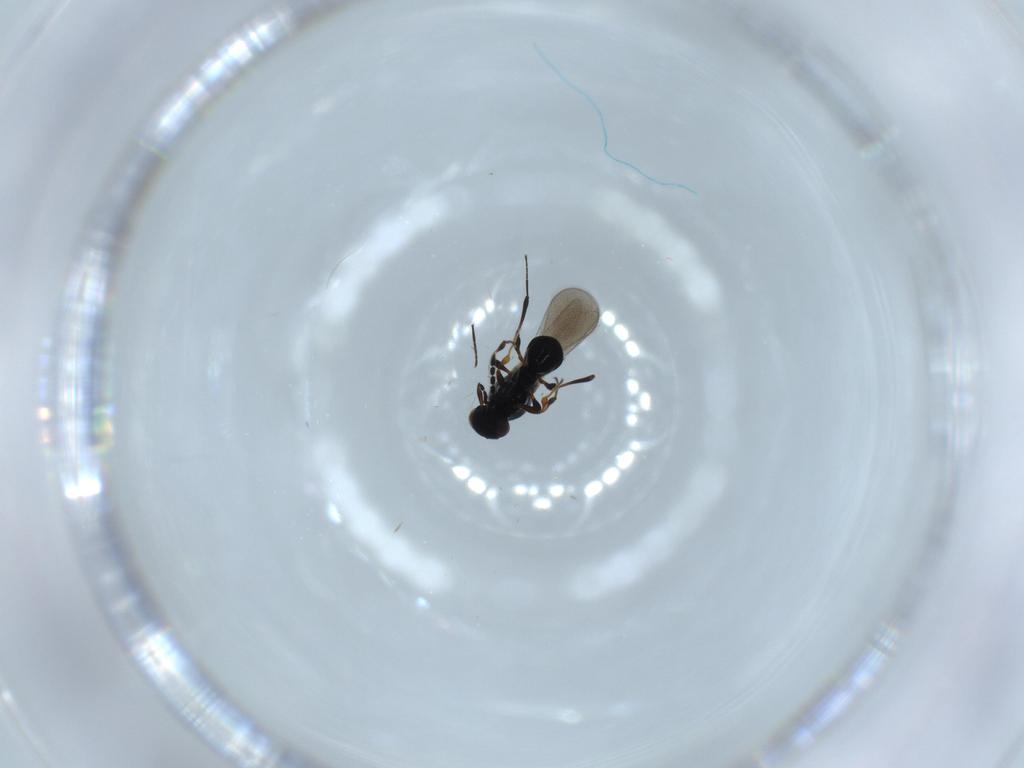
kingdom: Animalia
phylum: Arthropoda
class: Insecta
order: Hymenoptera
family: Platygastridae
